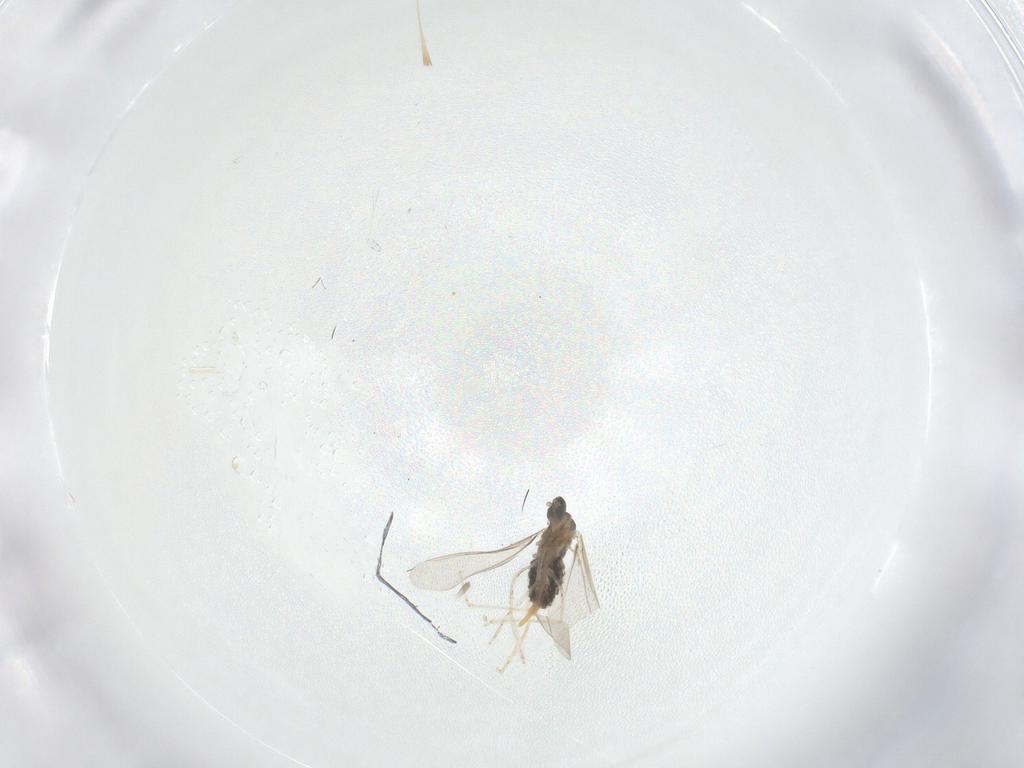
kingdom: Animalia
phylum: Arthropoda
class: Insecta
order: Diptera
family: Cecidomyiidae
